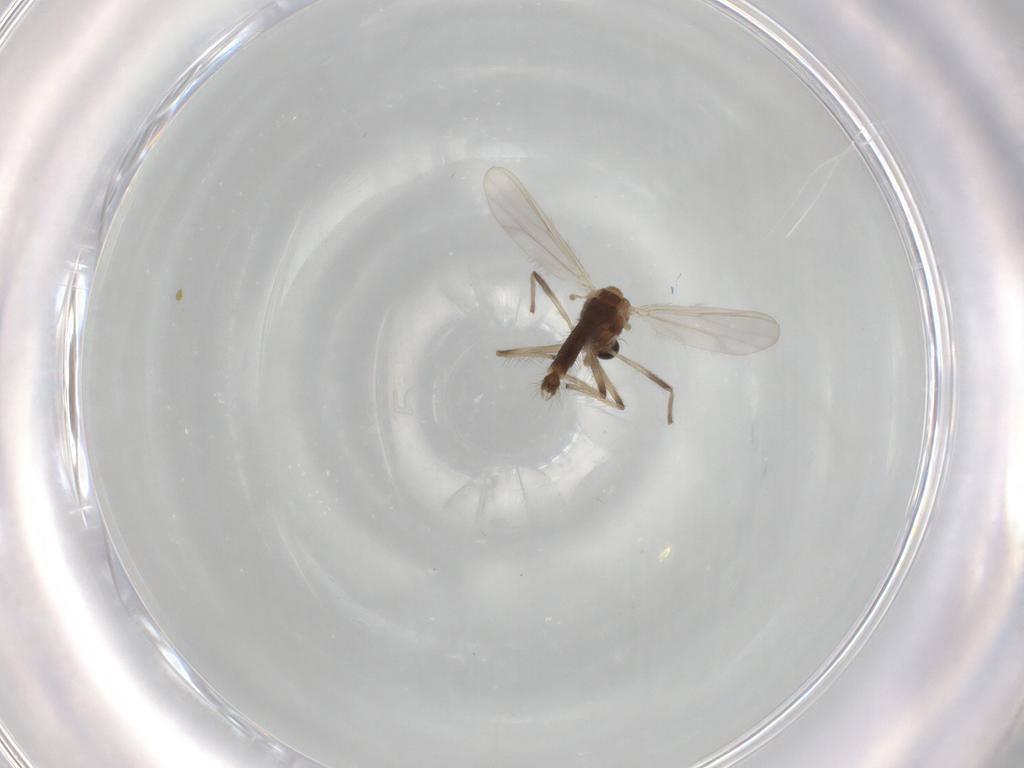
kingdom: Animalia
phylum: Arthropoda
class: Insecta
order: Diptera
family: Chironomidae
